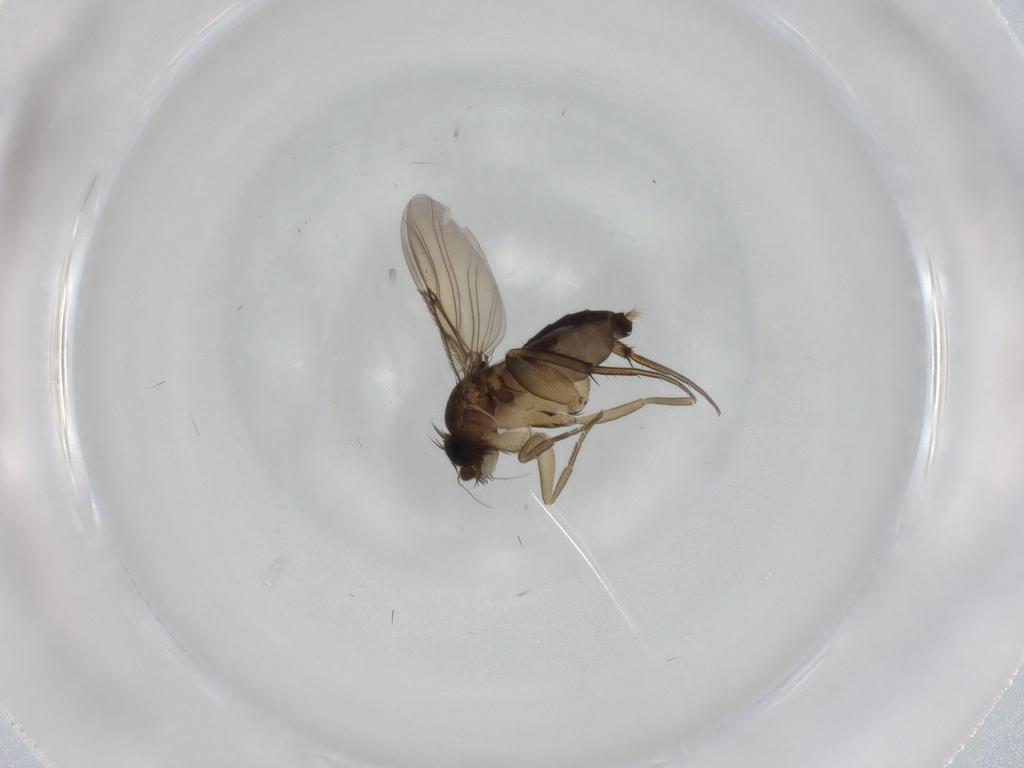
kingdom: Animalia
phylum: Arthropoda
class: Insecta
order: Diptera
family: Phoridae
